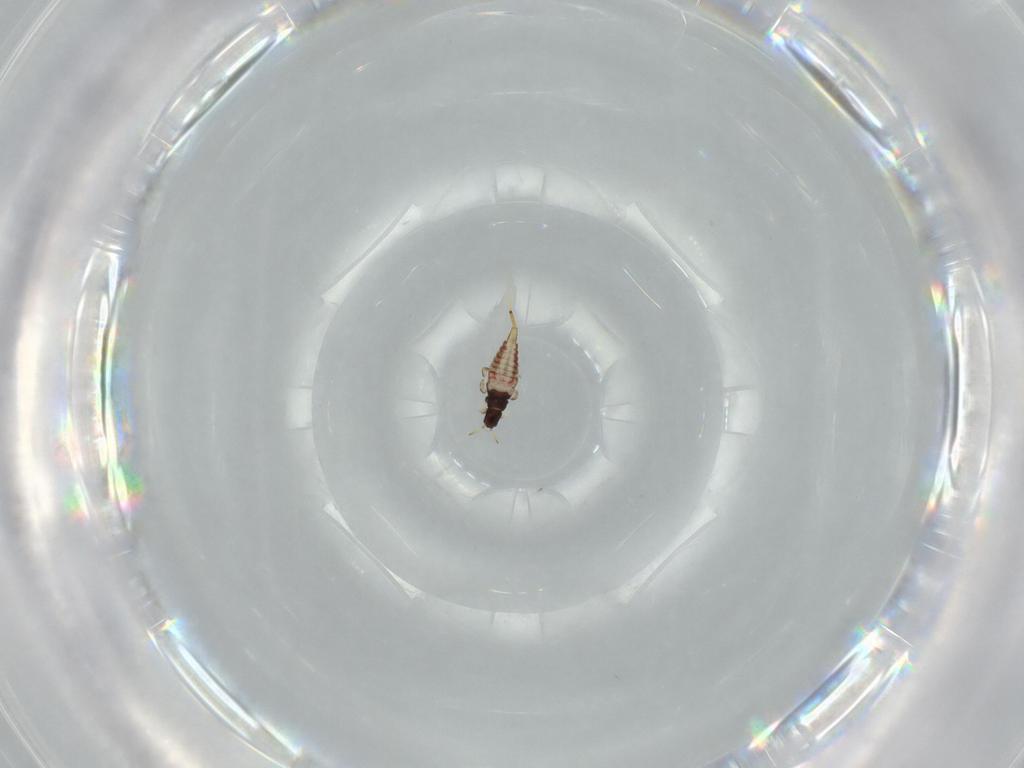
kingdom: Animalia
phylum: Arthropoda
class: Insecta
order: Thysanoptera
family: Phlaeothripidae
